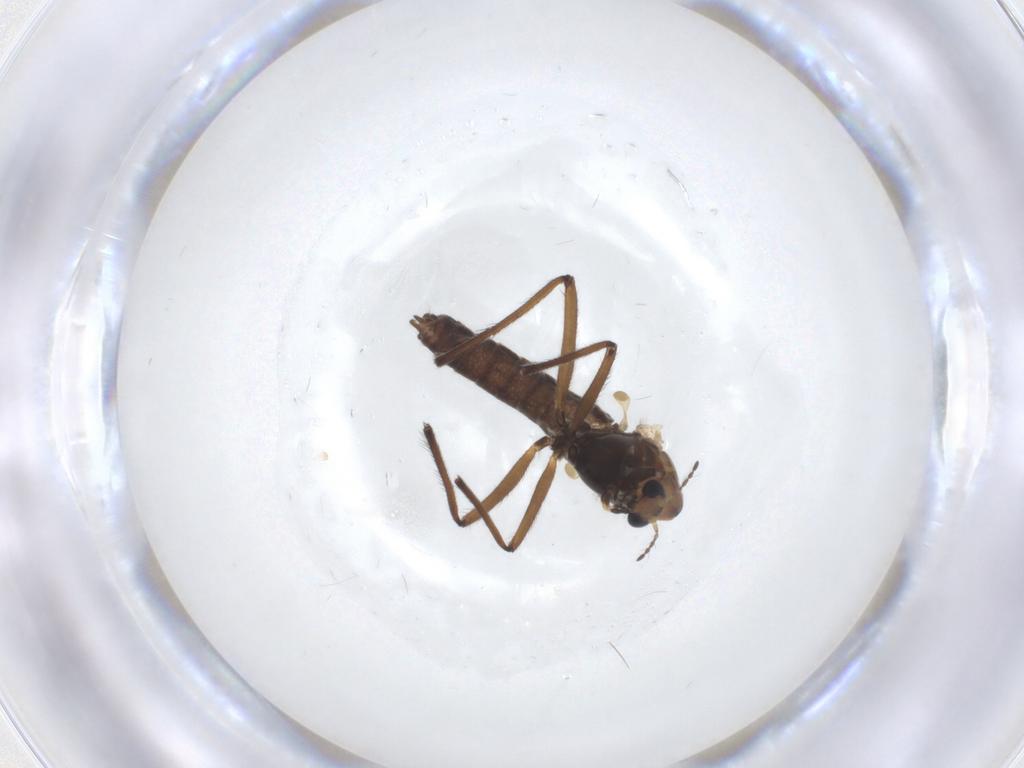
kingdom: Animalia
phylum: Arthropoda
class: Insecta
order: Diptera
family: Chironomidae
